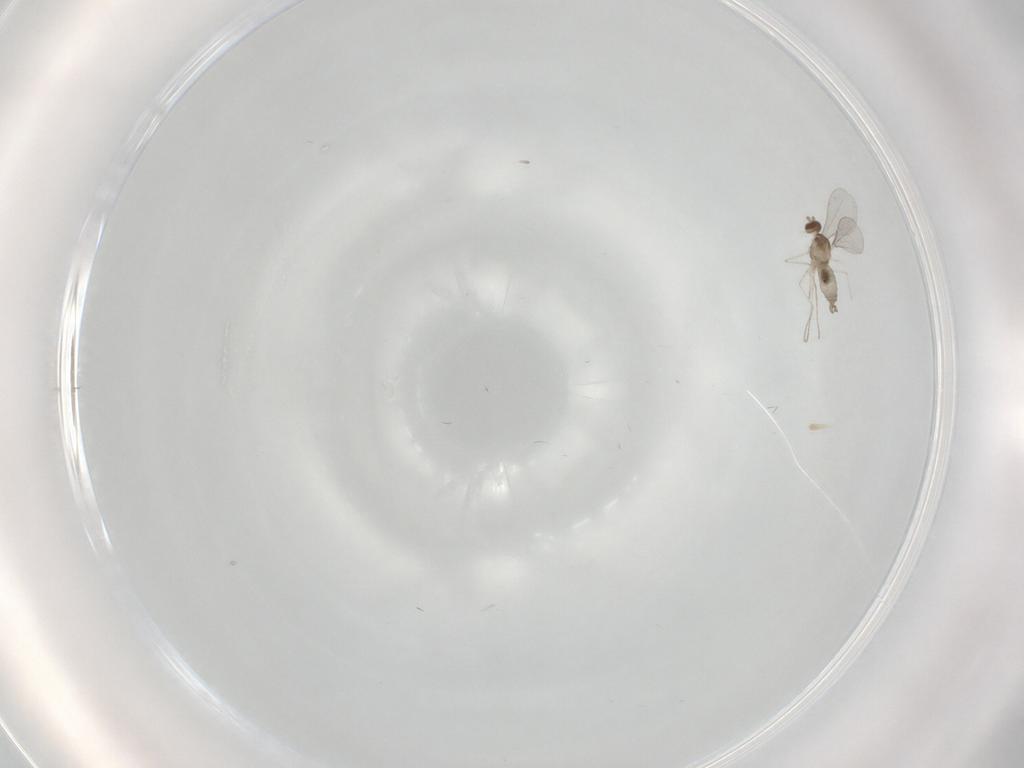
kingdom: Animalia
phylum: Arthropoda
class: Insecta
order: Diptera
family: Cecidomyiidae
